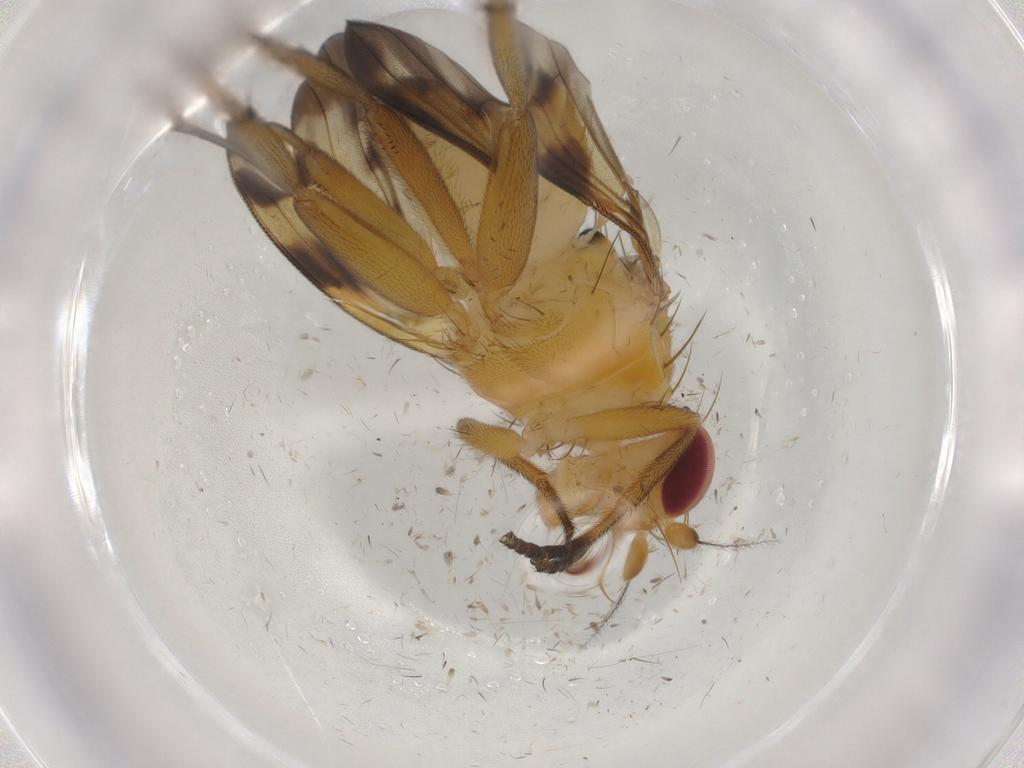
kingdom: Animalia
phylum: Arthropoda
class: Insecta
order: Diptera
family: Clusiidae
